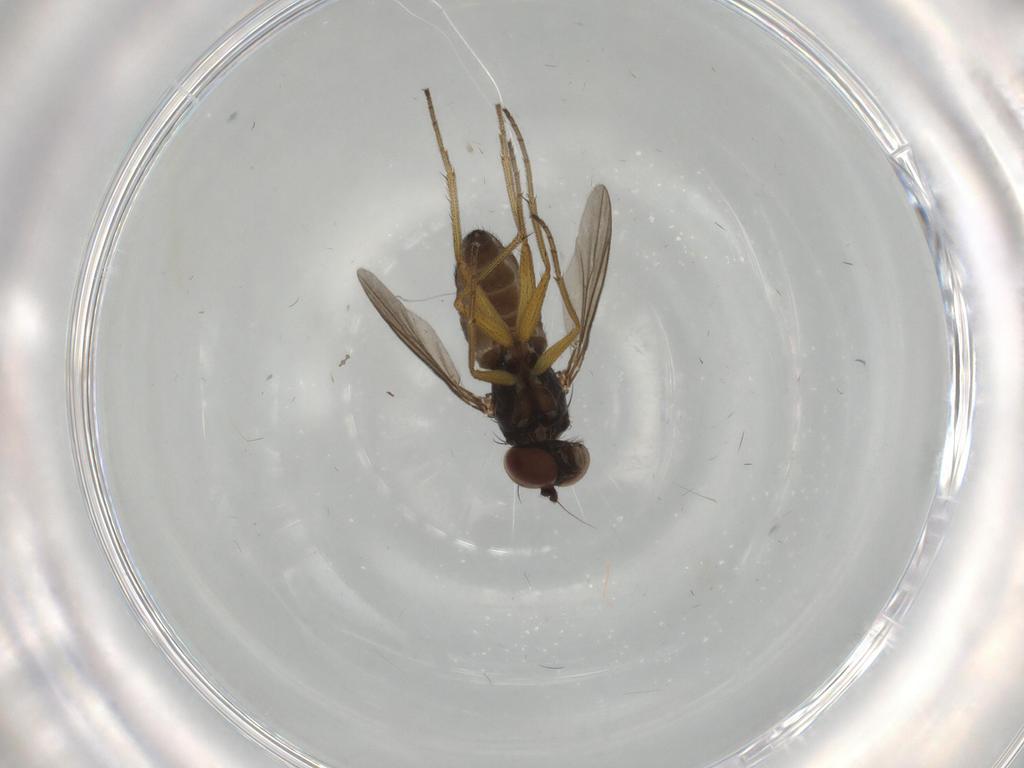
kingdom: Animalia
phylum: Arthropoda
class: Insecta
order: Diptera
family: Dolichopodidae
